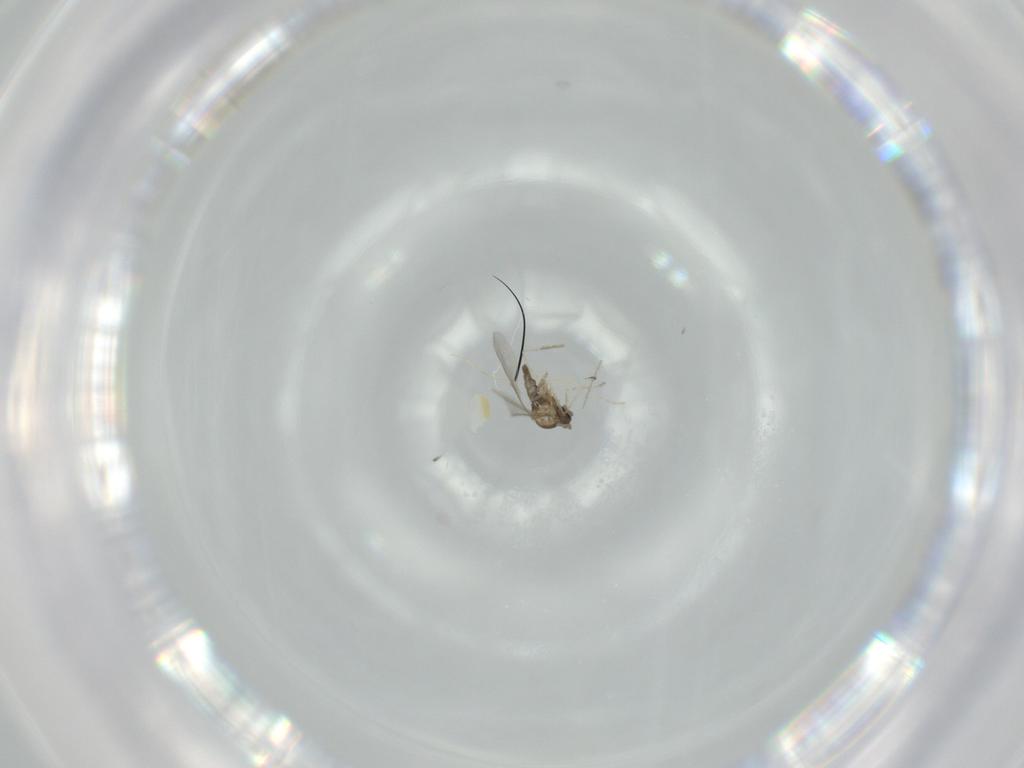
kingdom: Animalia
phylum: Arthropoda
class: Insecta
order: Diptera
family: Cecidomyiidae
